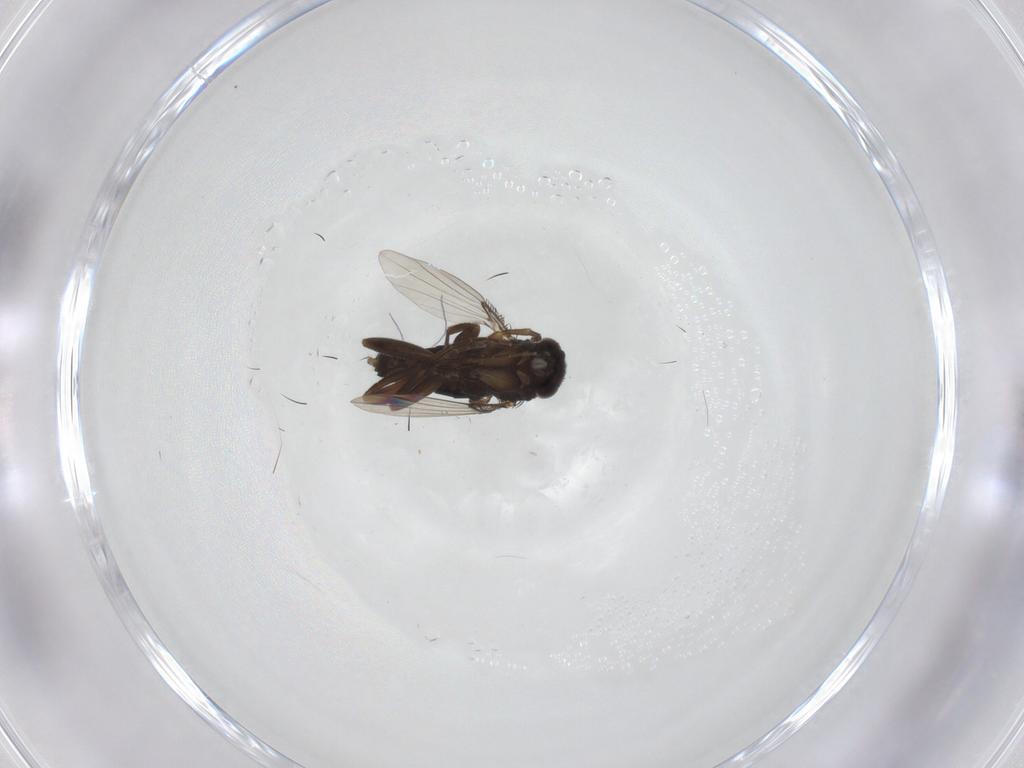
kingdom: Animalia
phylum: Arthropoda
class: Insecta
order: Diptera
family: Phoridae
